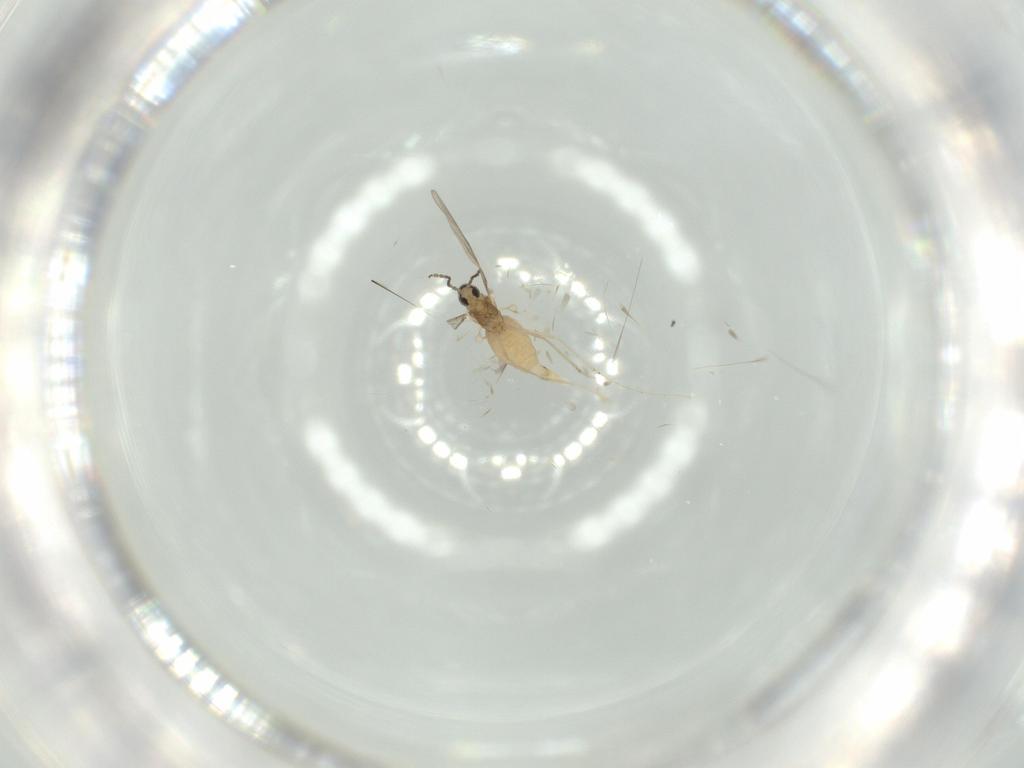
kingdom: Animalia
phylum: Arthropoda
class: Insecta
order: Diptera
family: Cecidomyiidae
